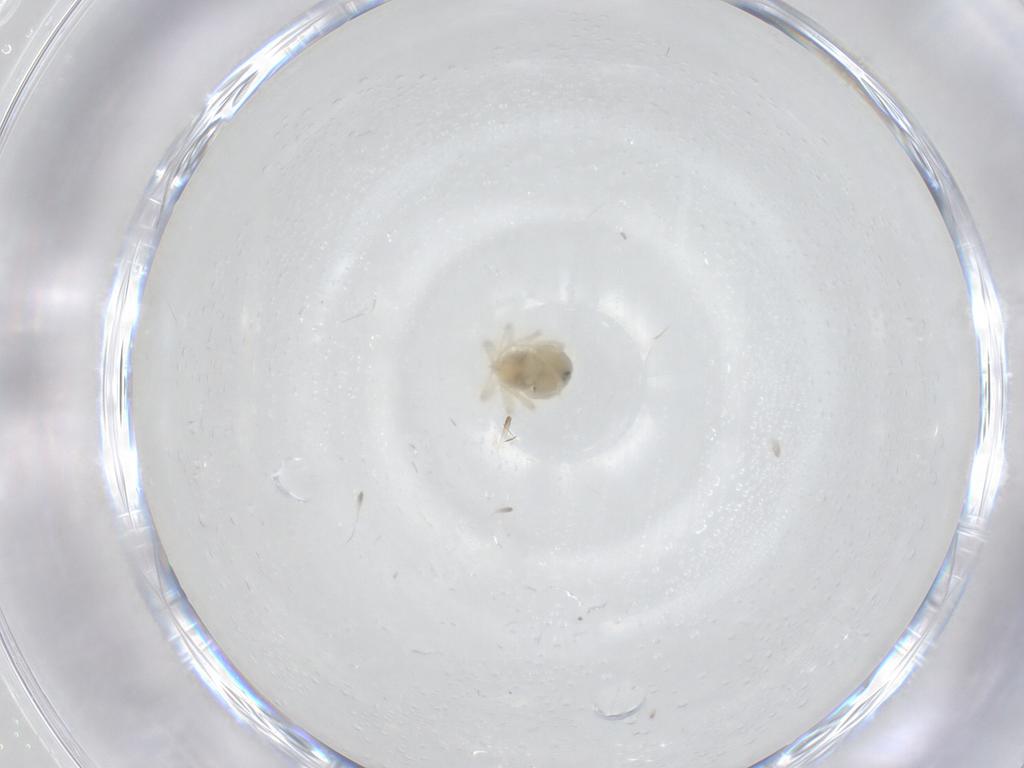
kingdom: Animalia
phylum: Arthropoda
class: Arachnida
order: Trombidiformes
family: Anystidae
